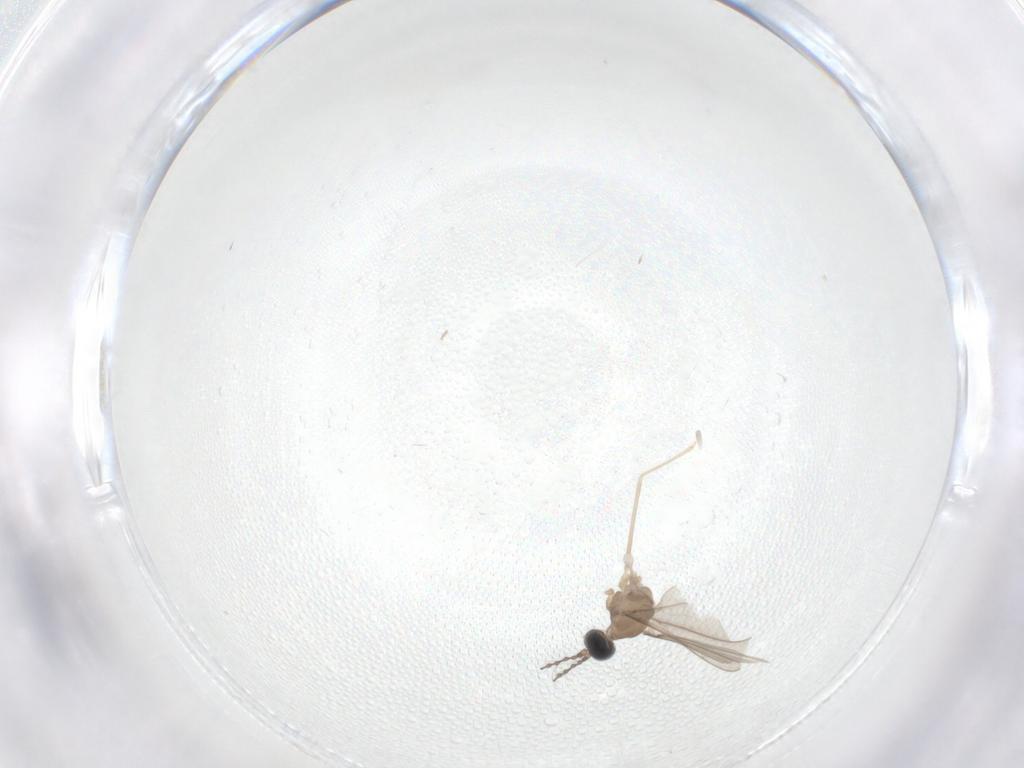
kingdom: Animalia
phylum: Arthropoda
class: Insecta
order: Diptera
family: Cecidomyiidae
